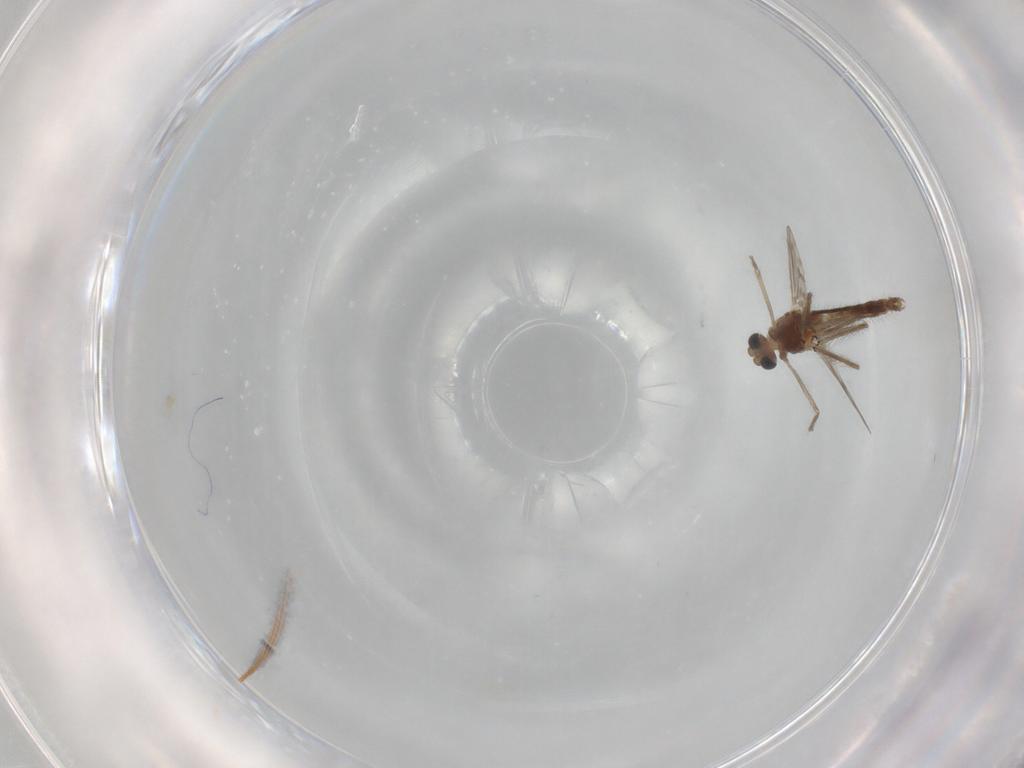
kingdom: Animalia
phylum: Arthropoda
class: Insecta
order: Diptera
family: Chironomidae
